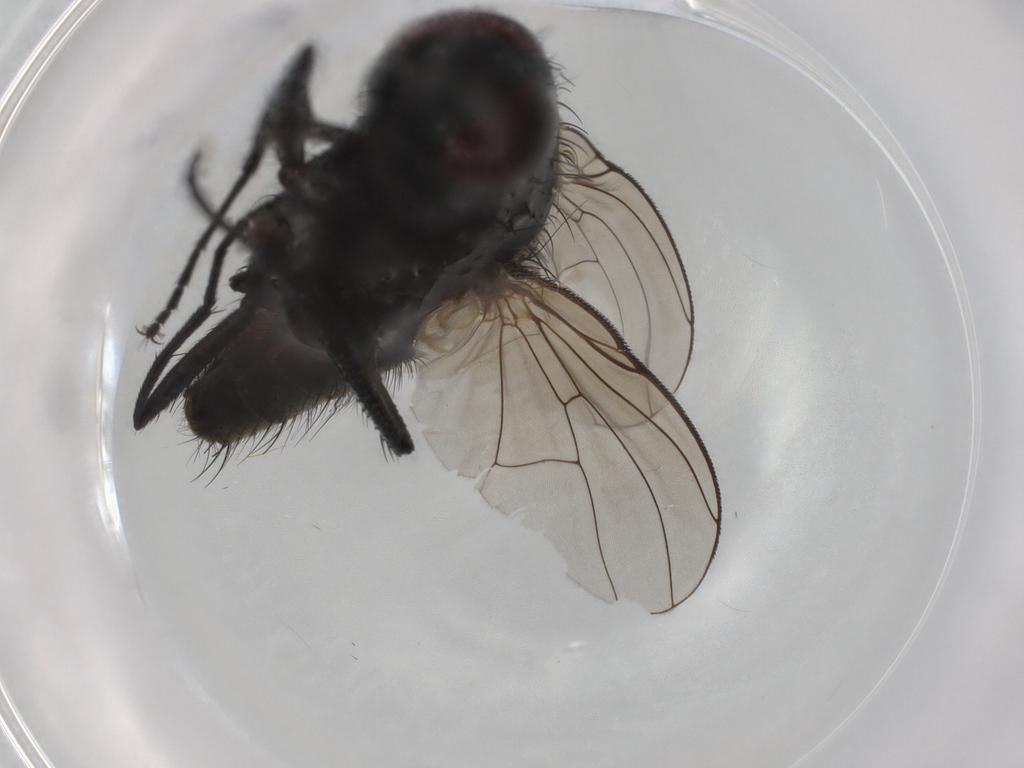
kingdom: Animalia
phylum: Arthropoda
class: Insecta
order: Diptera
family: Muscidae
